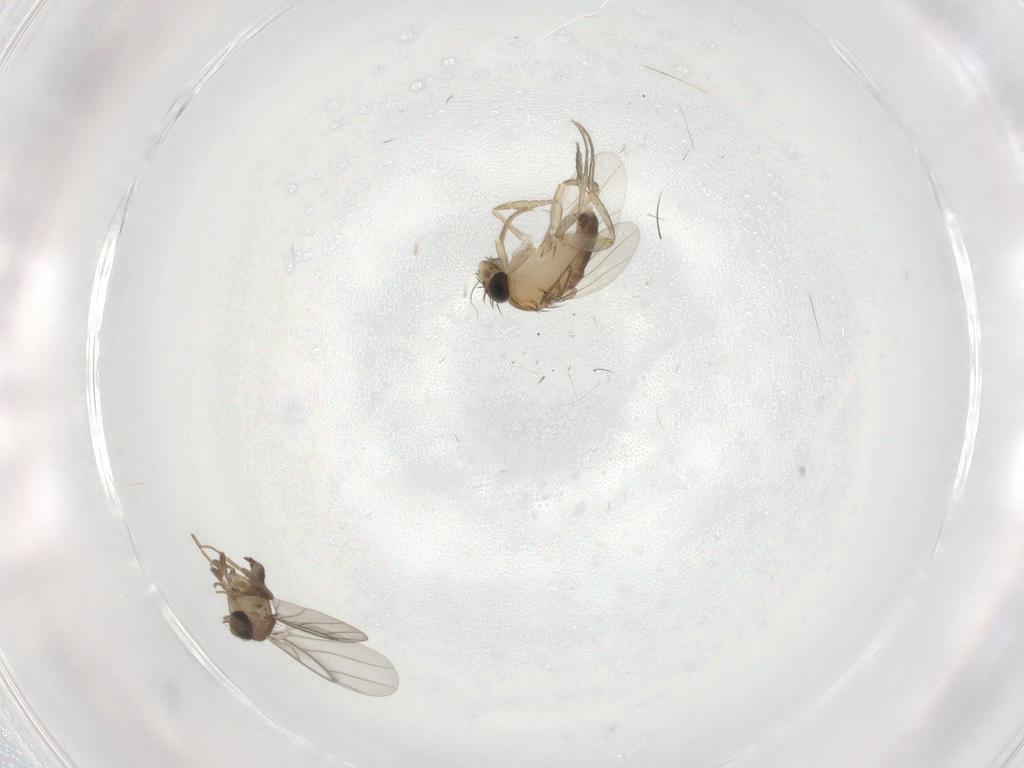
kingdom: Animalia
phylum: Arthropoda
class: Insecta
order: Diptera
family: Phoridae
